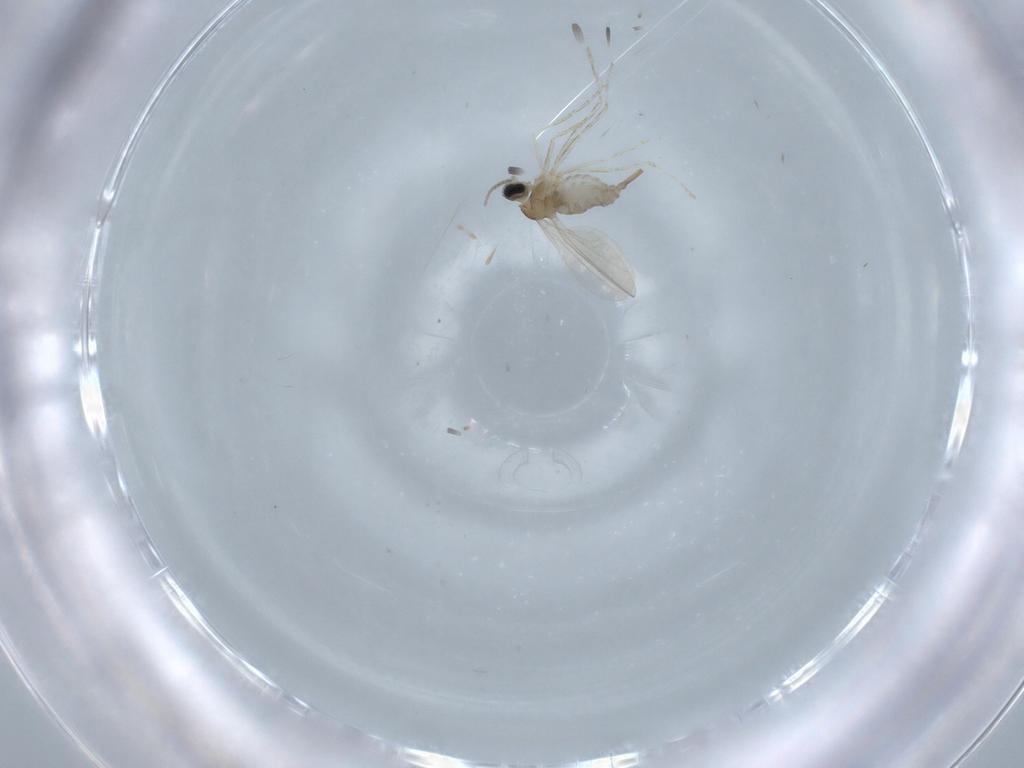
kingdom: Animalia
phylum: Arthropoda
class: Insecta
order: Diptera
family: Cecidomyiidae
